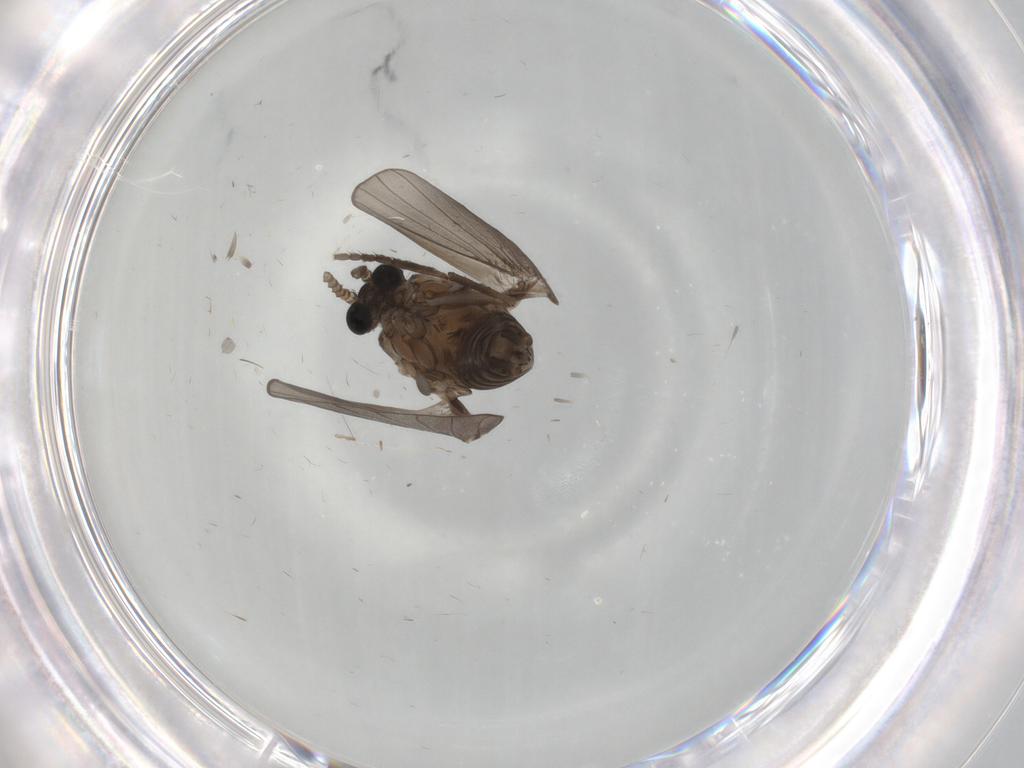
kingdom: Animalia
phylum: Arthropoda
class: Insecta
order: Diptera
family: Psychodidae
